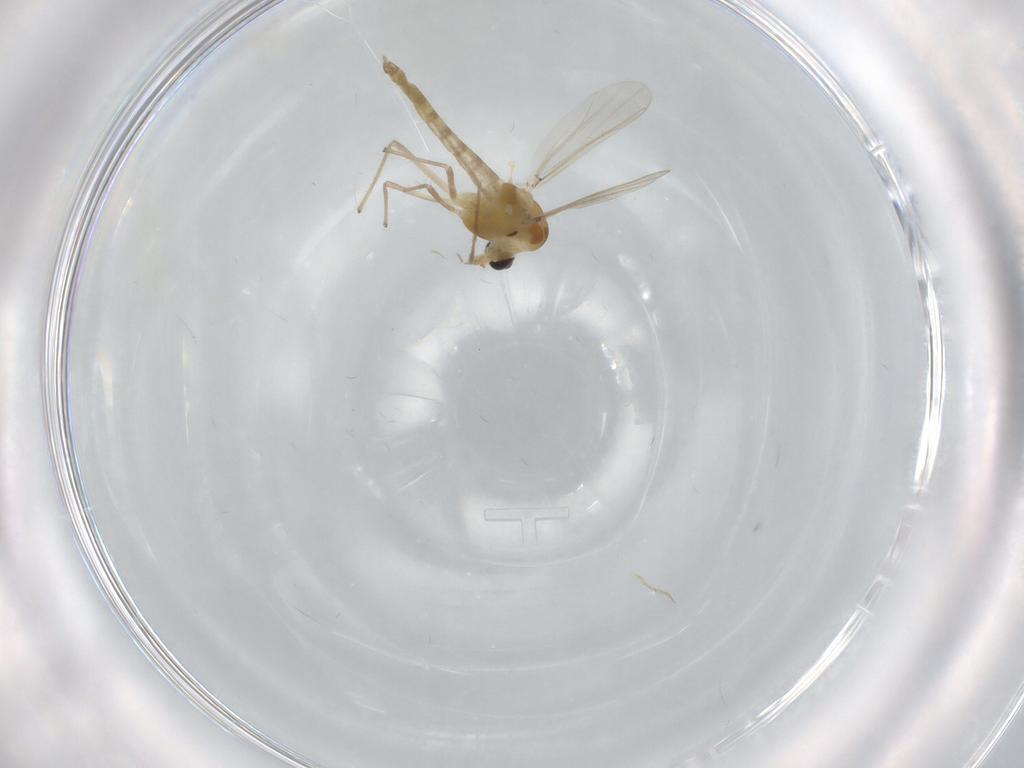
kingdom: Animalia
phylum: Arthropoda
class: Insecta
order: Diptera
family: Chironomidae
